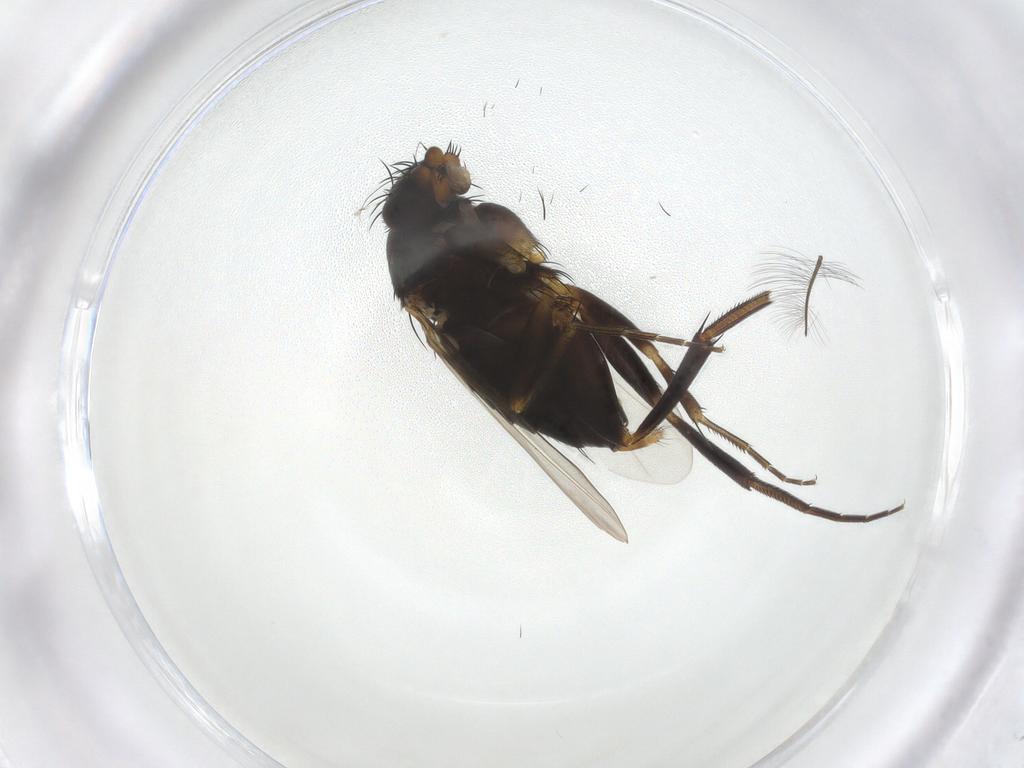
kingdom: Animalia
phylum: Arthropoda
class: Insecta
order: Diptera
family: Phoridae
